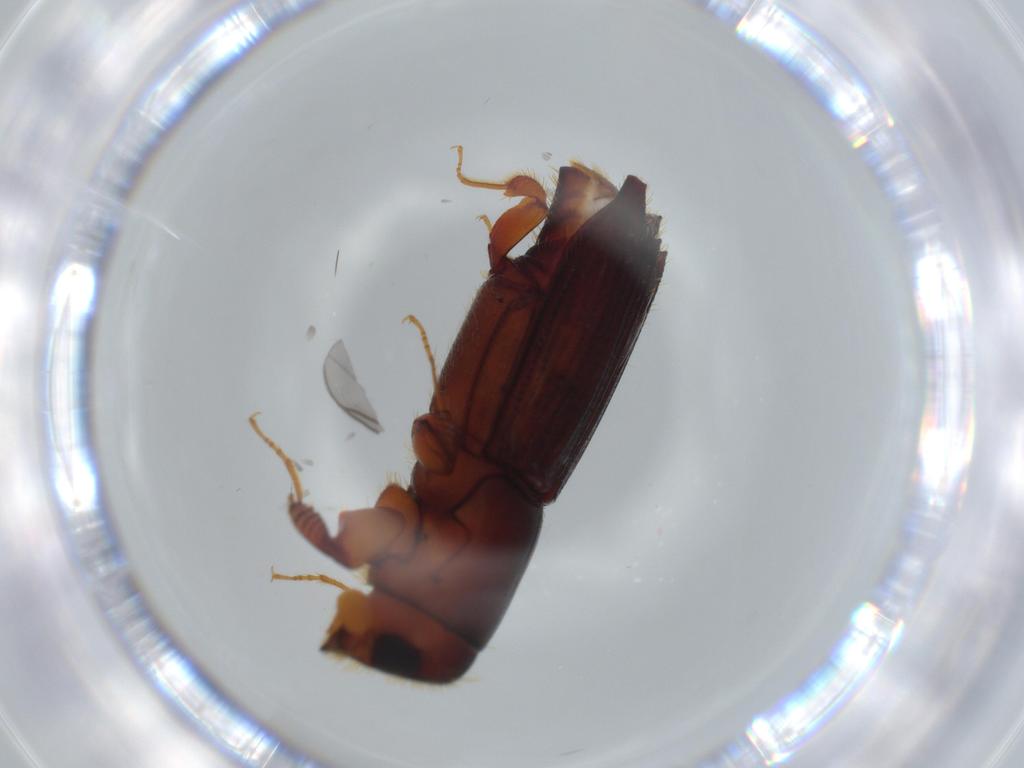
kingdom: Animalia
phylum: Arthropoda
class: Insecta
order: Coleoptera
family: Curculionidae
